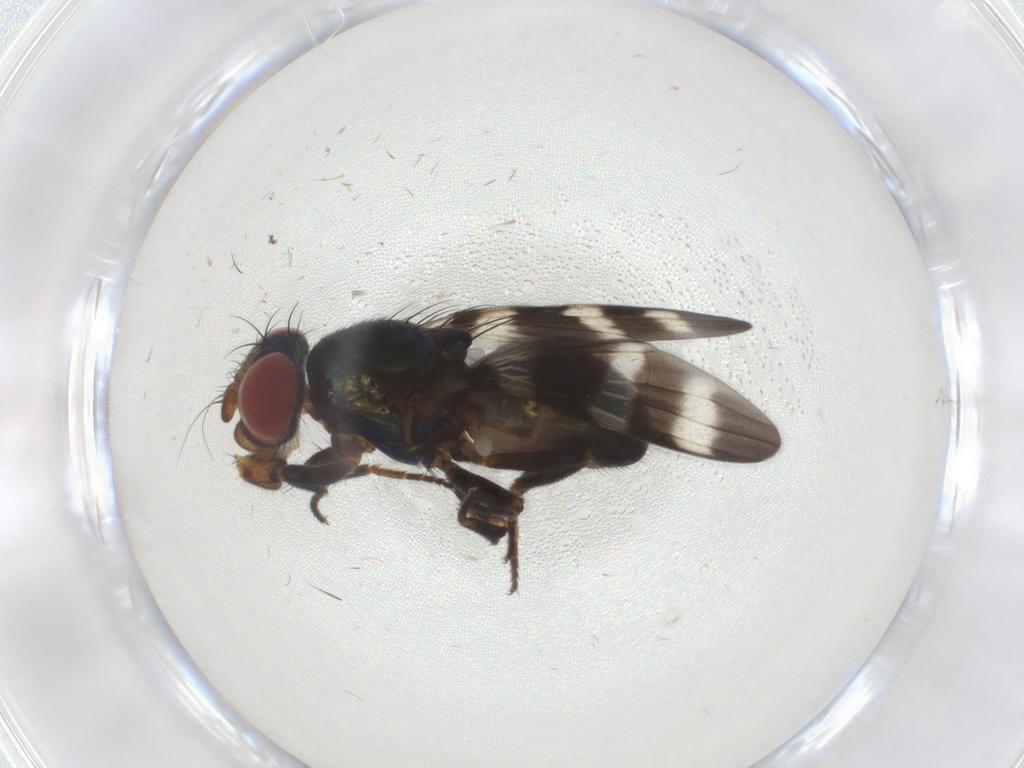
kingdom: Animalia
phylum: Arthropoda
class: Insecta
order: Diptera
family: Ulidiidae
